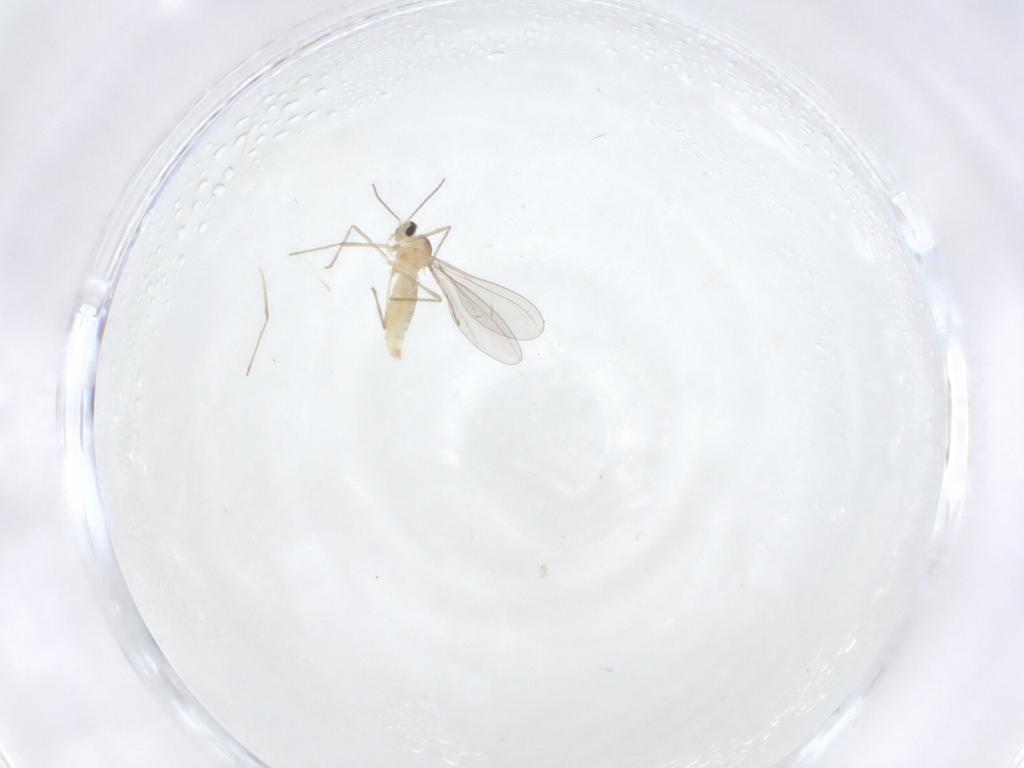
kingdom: Animalia
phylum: Arthropoda
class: Insecta
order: Diptera
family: Cecidomyiidae
